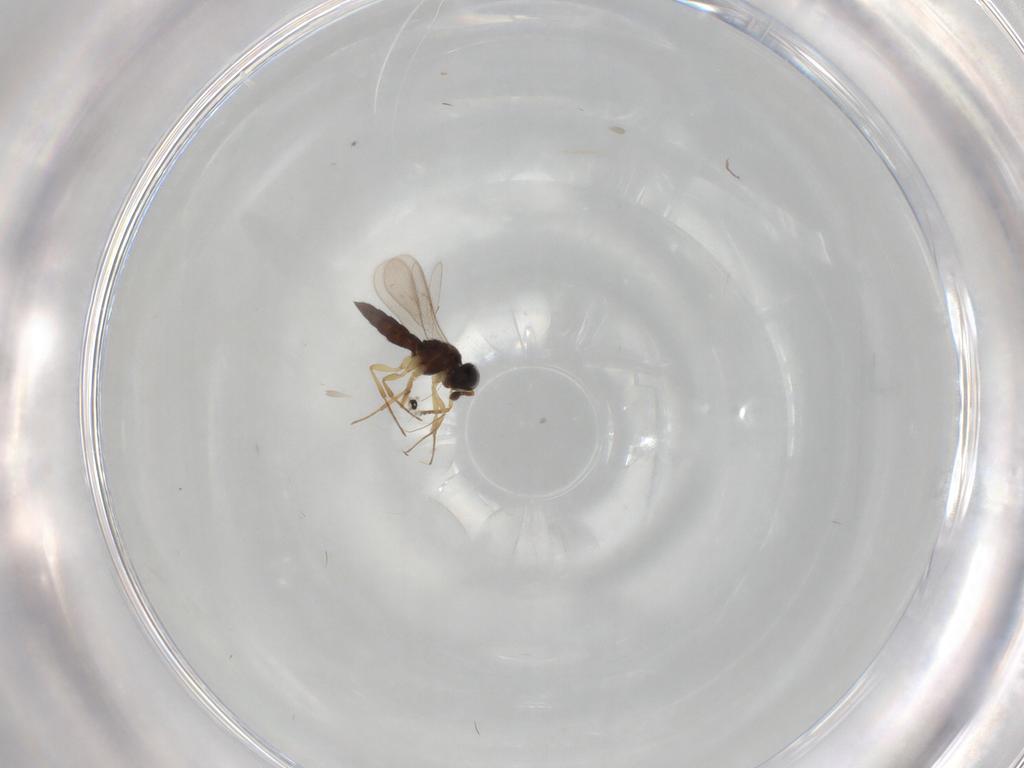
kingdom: Animalia
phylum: Arthropoda
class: Insecta
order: Hymenoptera
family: Scelionidae
